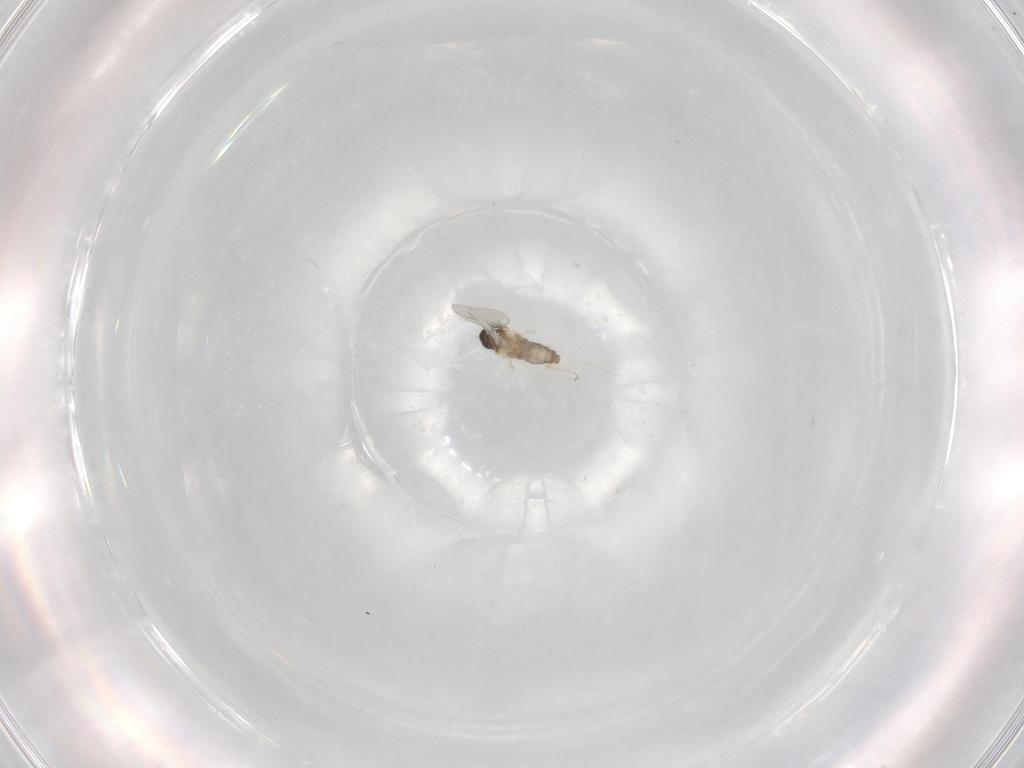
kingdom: Animalia
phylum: Arthropoda
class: Insecta
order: Diptera
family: Cecidomyiidae
